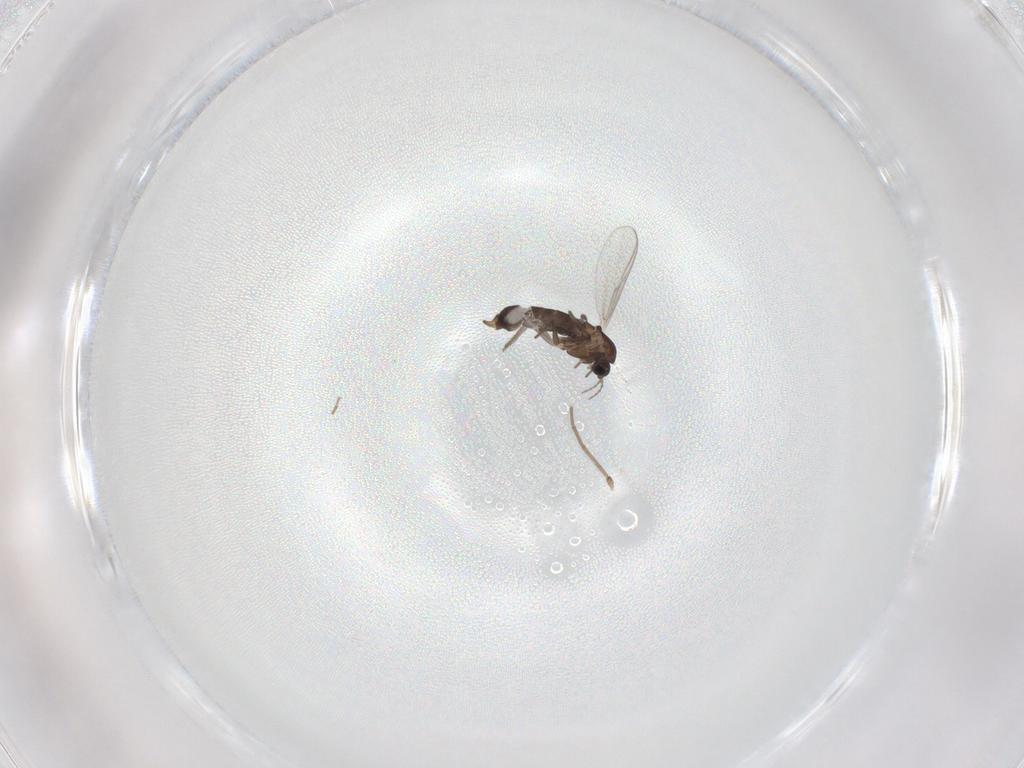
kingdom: Animalia
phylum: Arthropoda
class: Insecta
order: Diptera
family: Chironomidae
